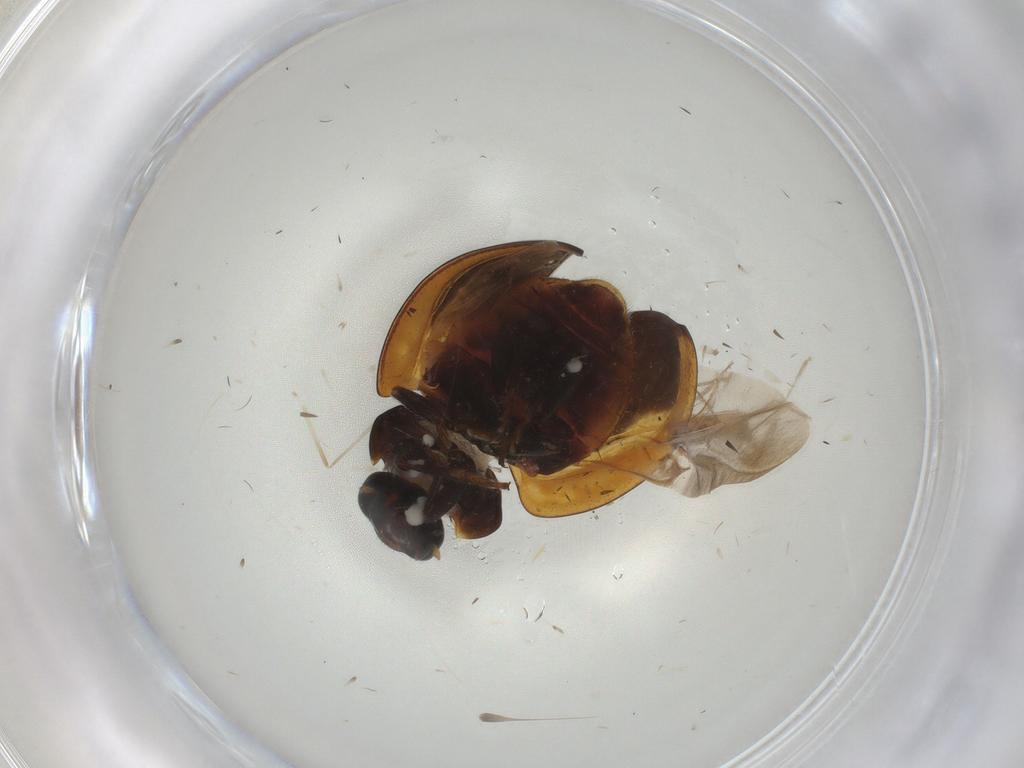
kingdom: Animalia
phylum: Arthropoda
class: Insecta
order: Coleoptera
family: Coccinellidae
